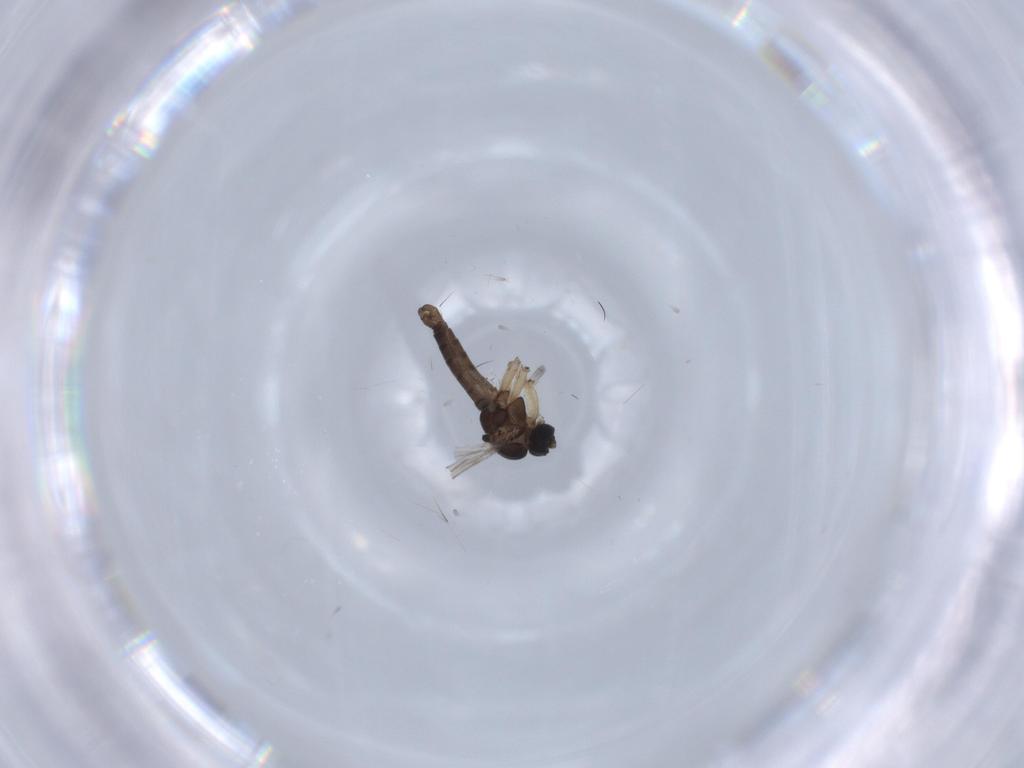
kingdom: Animalia
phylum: Arthropoda
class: Insecta
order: Diptera
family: Sciaridae
